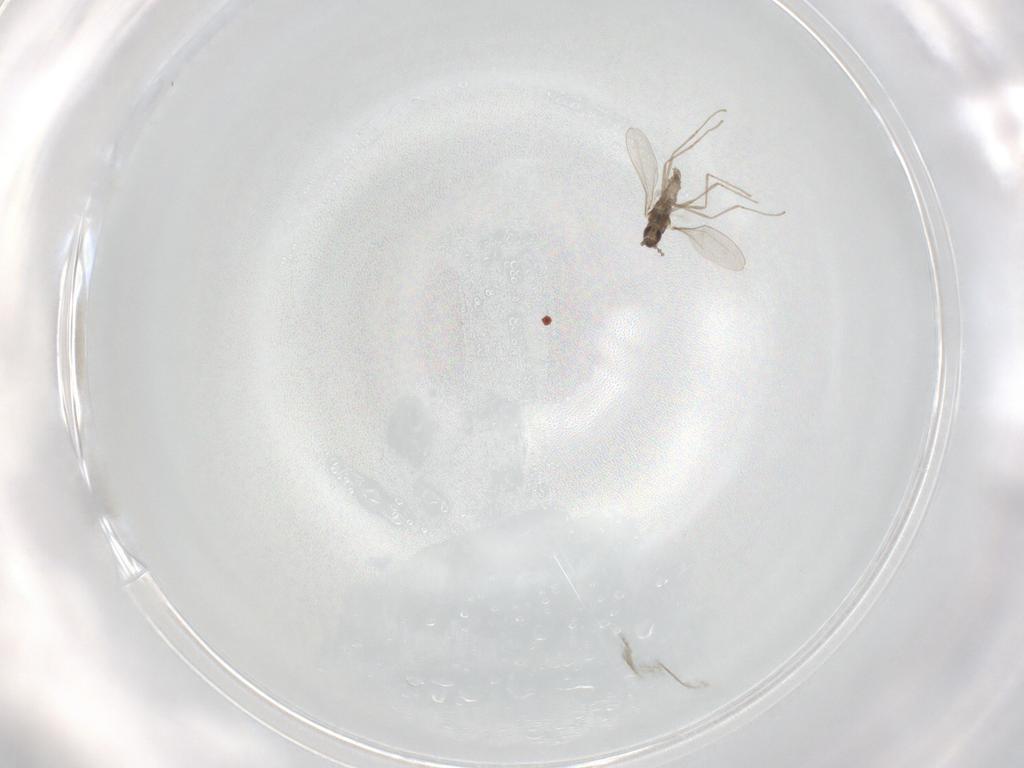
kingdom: Animalia
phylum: Arthropoda
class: Insecta
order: Diptera
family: Cecidomyiidae
